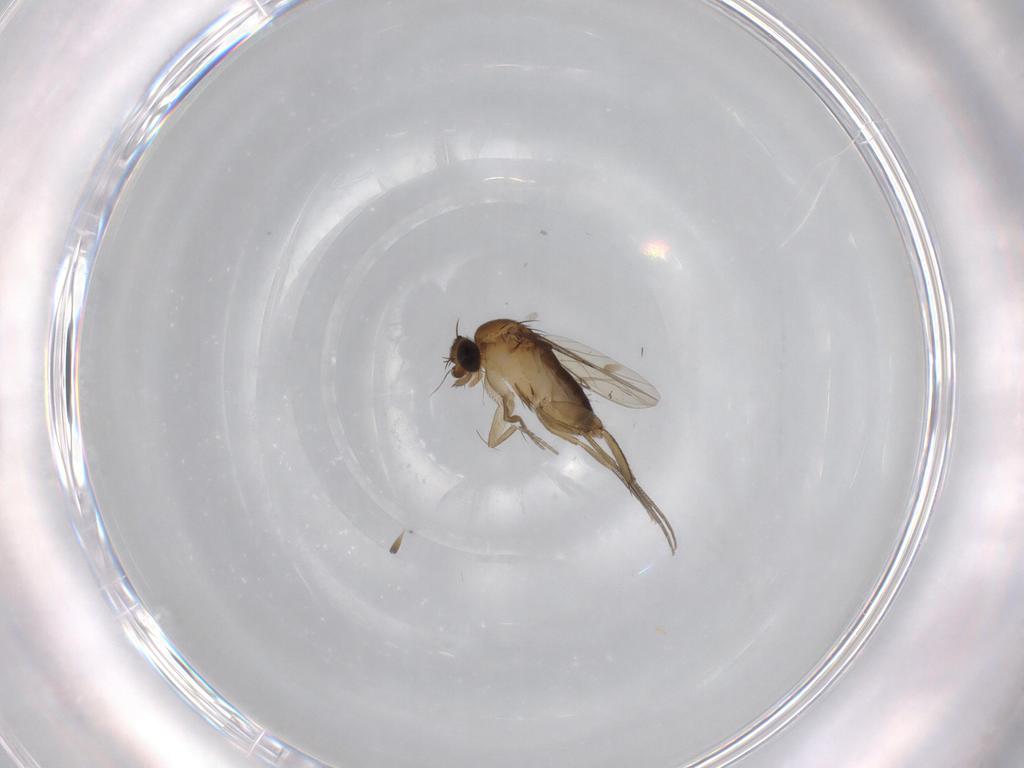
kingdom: Animalia
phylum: Arthropoda
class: Insecta
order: Diptera
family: Phoridae
